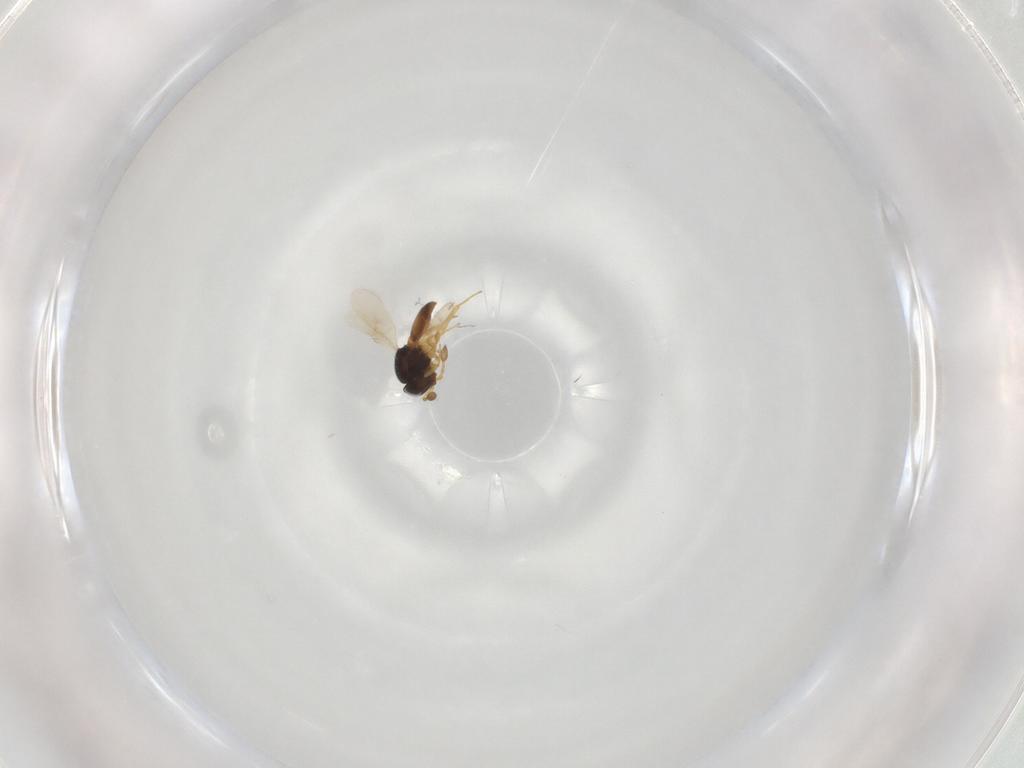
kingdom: Animalia
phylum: Arthropoda
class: Insecta
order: Hymenoptera
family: Scelionidae
